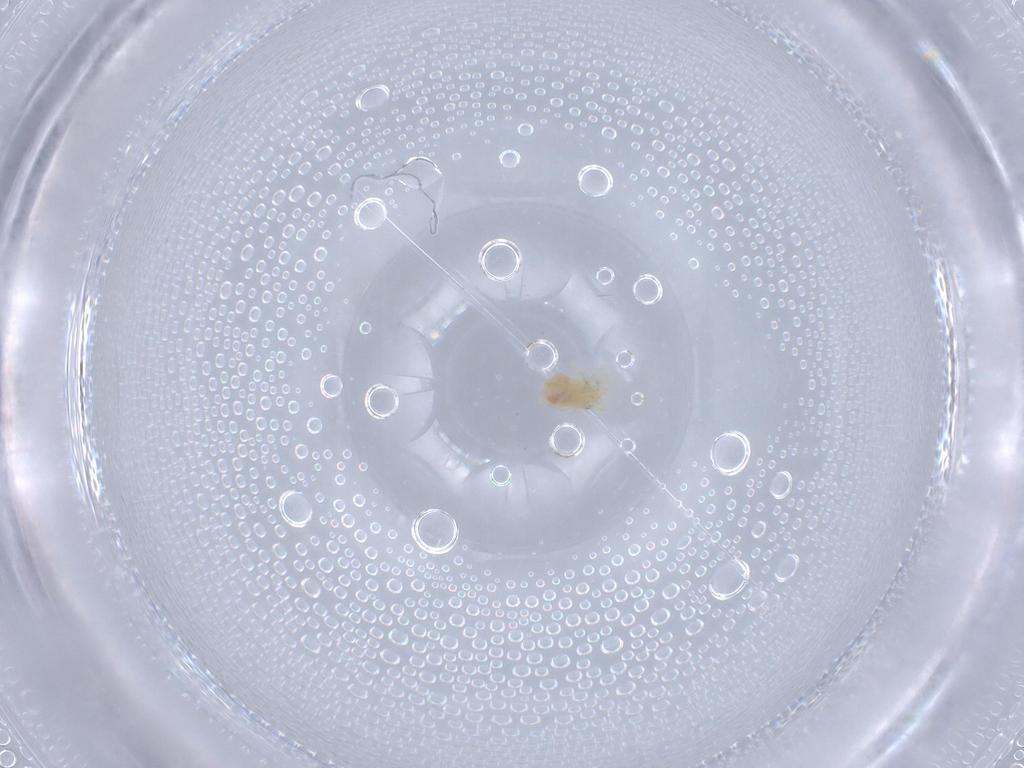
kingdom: Animalia
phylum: Arthropoda
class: Arachnida
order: Trombidiformes
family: Anystidae
